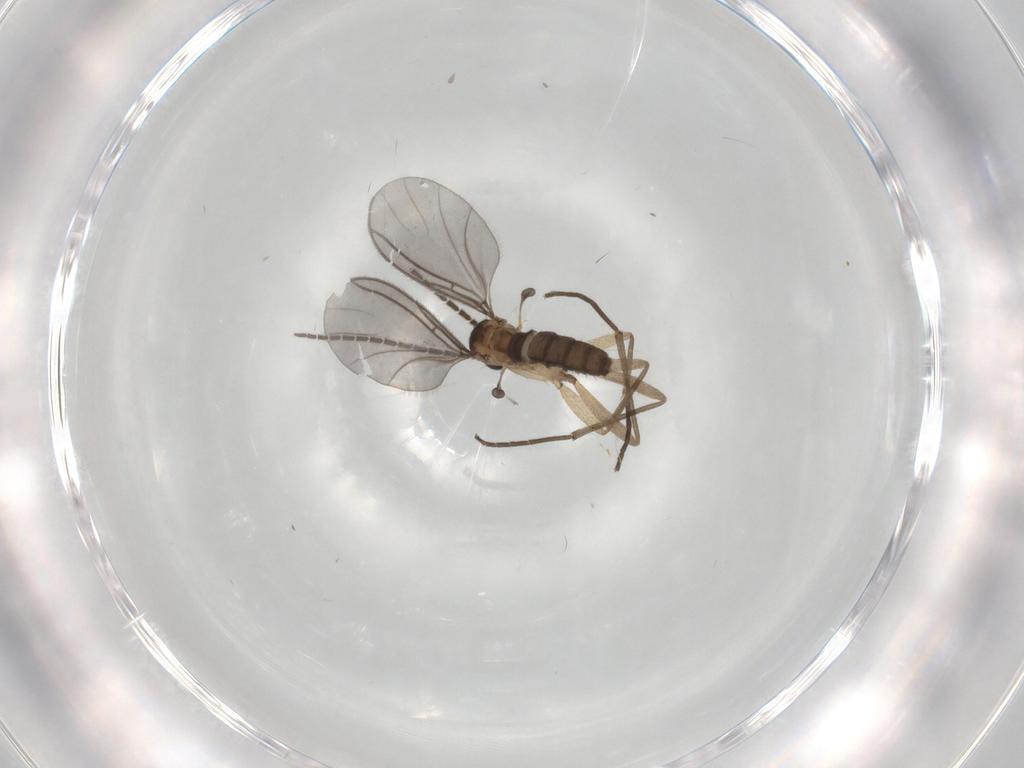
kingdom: Animalia
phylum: Arthropoda
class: Insecta
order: Diptera
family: Sciaridae
